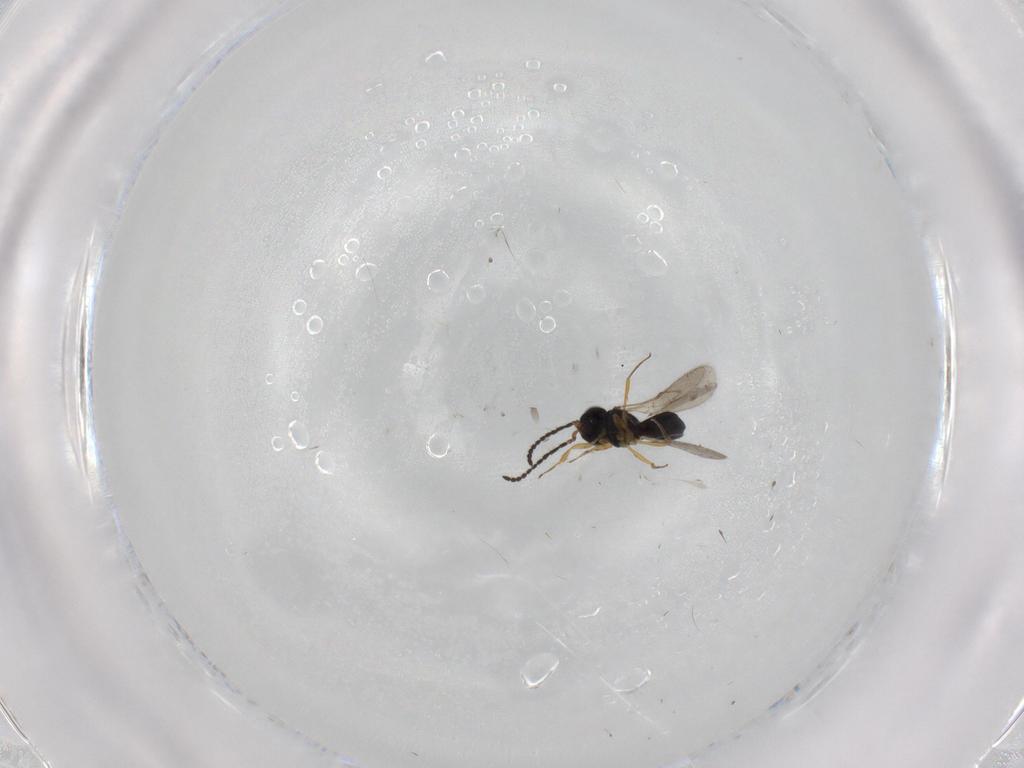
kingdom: Animalia
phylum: Arthropoda
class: Insecta
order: Hymenoptera
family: Scelionidae
